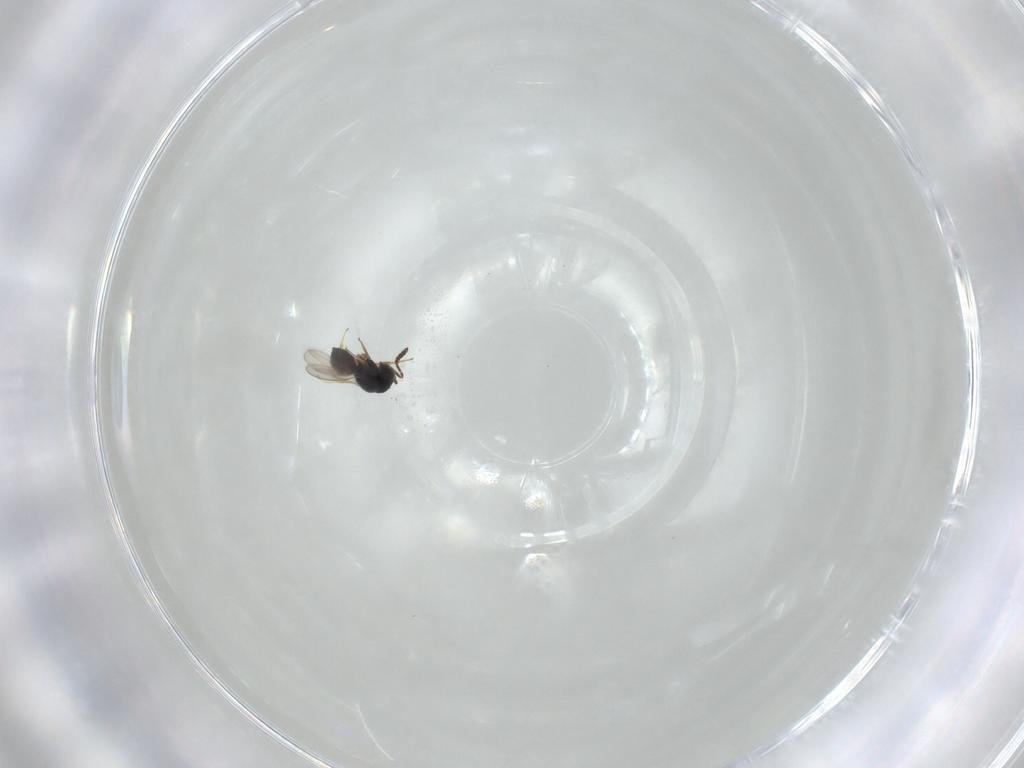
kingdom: Animalia
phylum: Arthropoda
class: Insecta
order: Hymenoptera
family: Scelionidae
